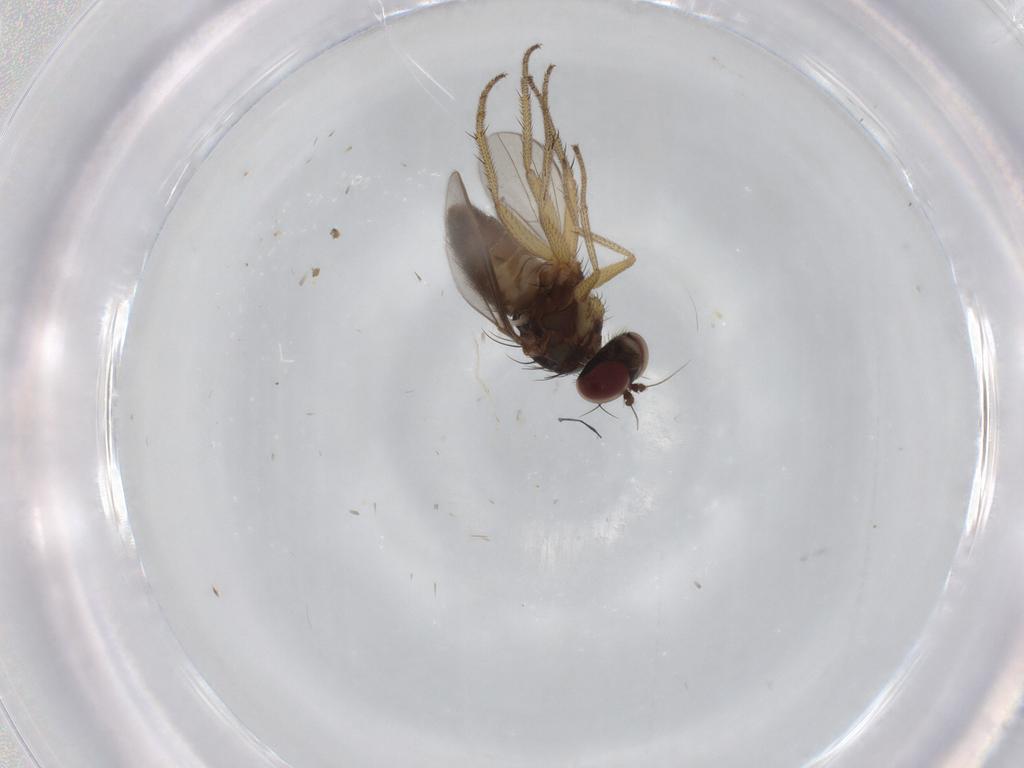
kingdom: Animalia
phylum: Arthropoda
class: Insecta
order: Diptera
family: Dolichopodidae
